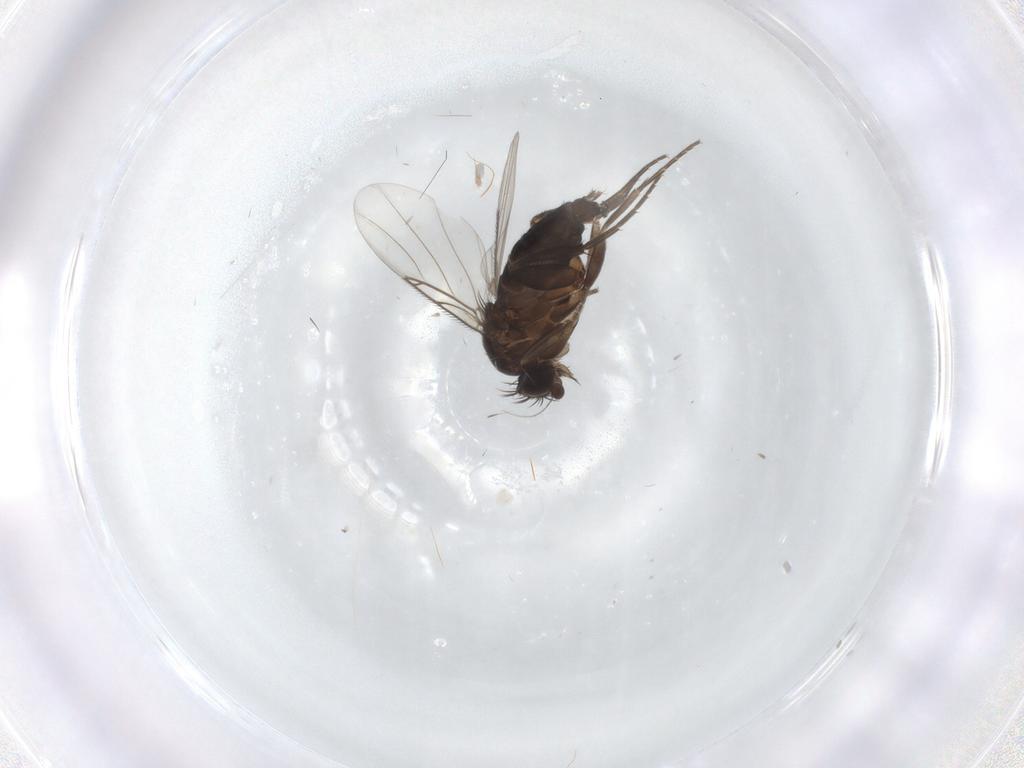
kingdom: Animalia
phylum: Arthropoda
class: Insecta
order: Diptera
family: Phoridae
